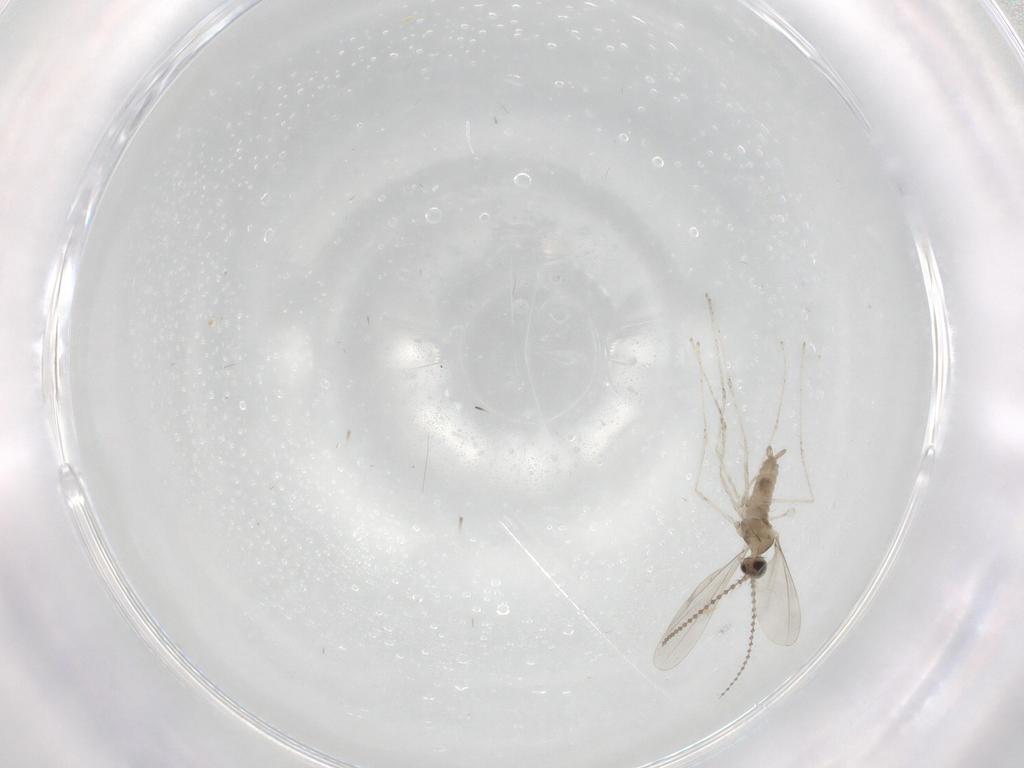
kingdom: Animalia
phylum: Arthropoda
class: Insecta
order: Diptera
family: Cecidomyiidae
